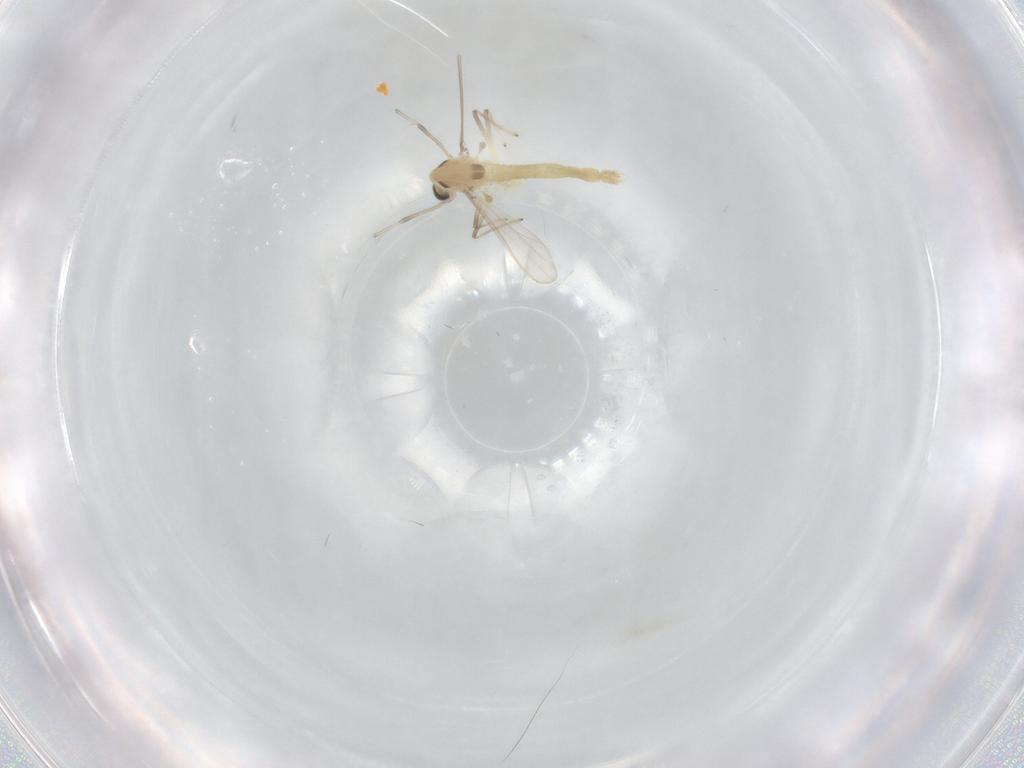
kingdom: Animalia
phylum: Arthropoda
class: Insecta
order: Diptera
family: Chironomidae
